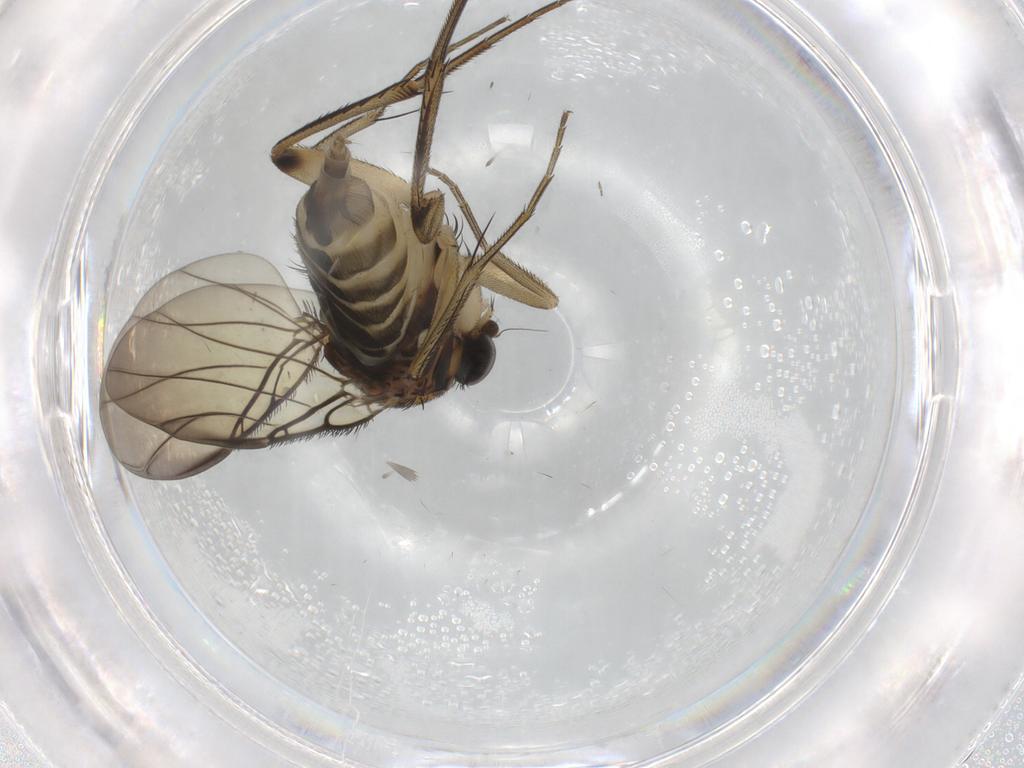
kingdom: Animalia
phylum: Arthropoda
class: Insecta
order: Diptera
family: Phoridae
